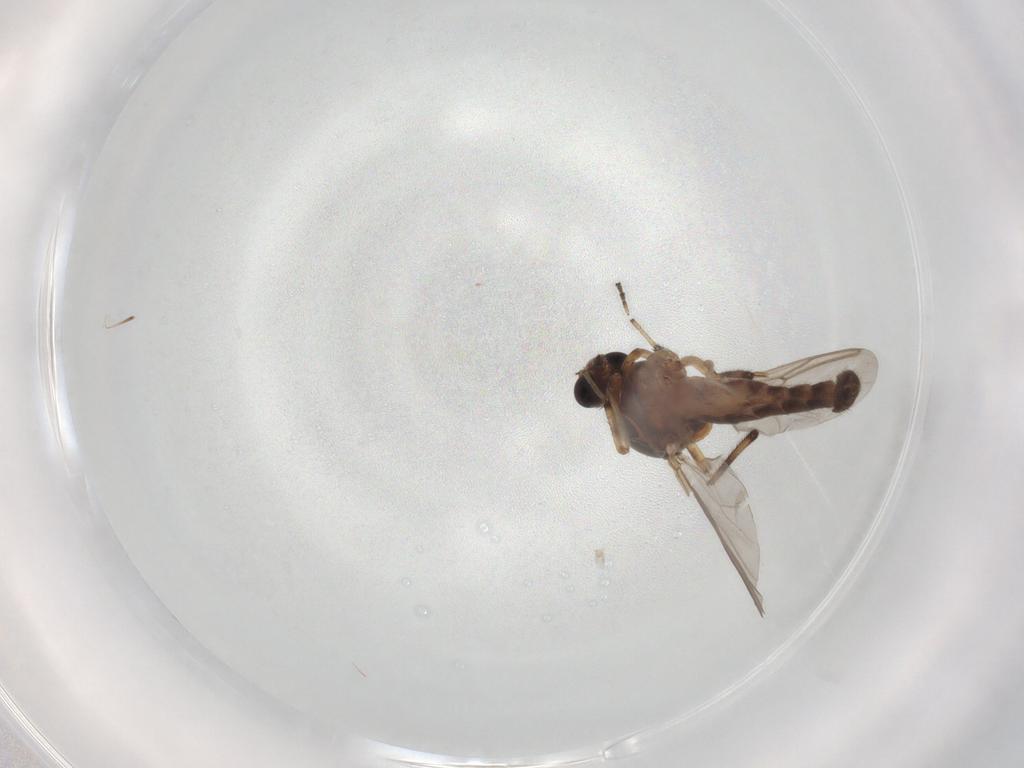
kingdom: Animalia
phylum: Arthropoda
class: Insecta
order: Diptera
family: Ceratopogonidae
